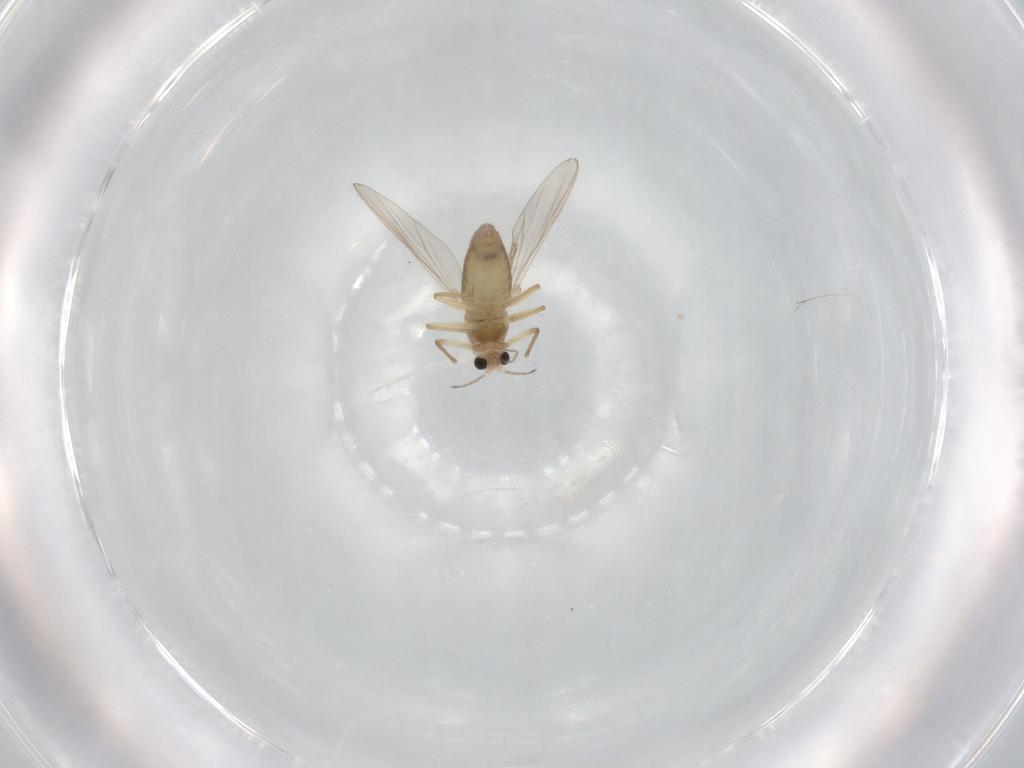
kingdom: Animalia
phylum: Arthropoda
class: Insecta
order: Diptera
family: Chironomidae
